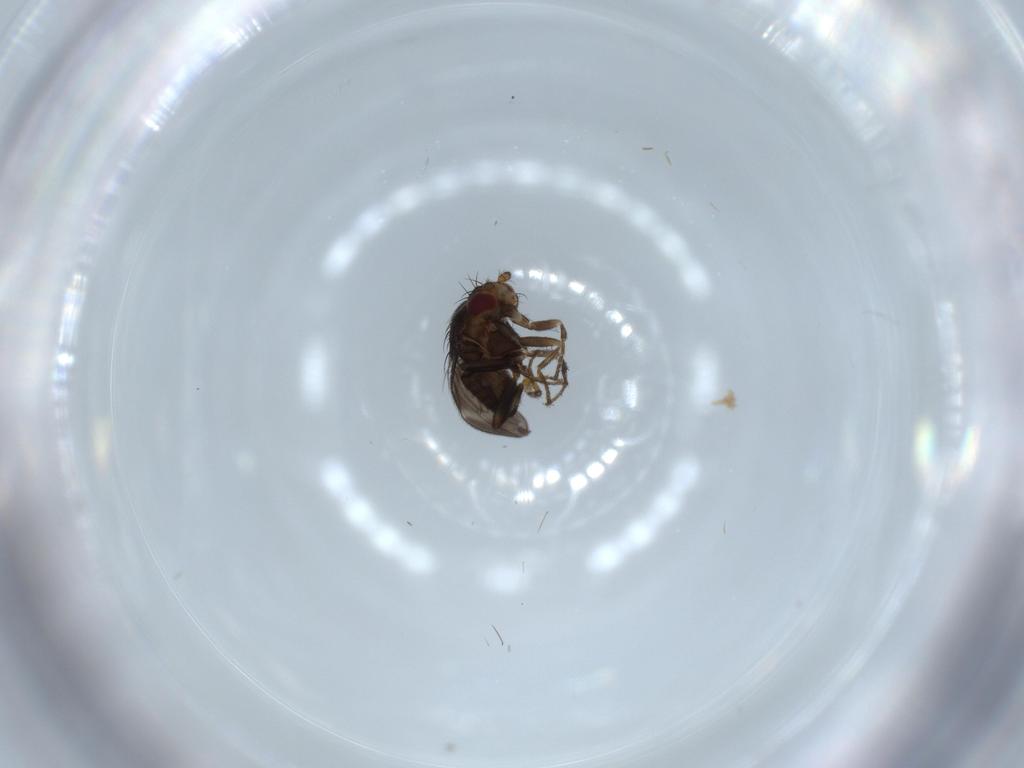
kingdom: Animalia
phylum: Arthropoda
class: Insecta
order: Diptera
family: Sphaeroceridae
